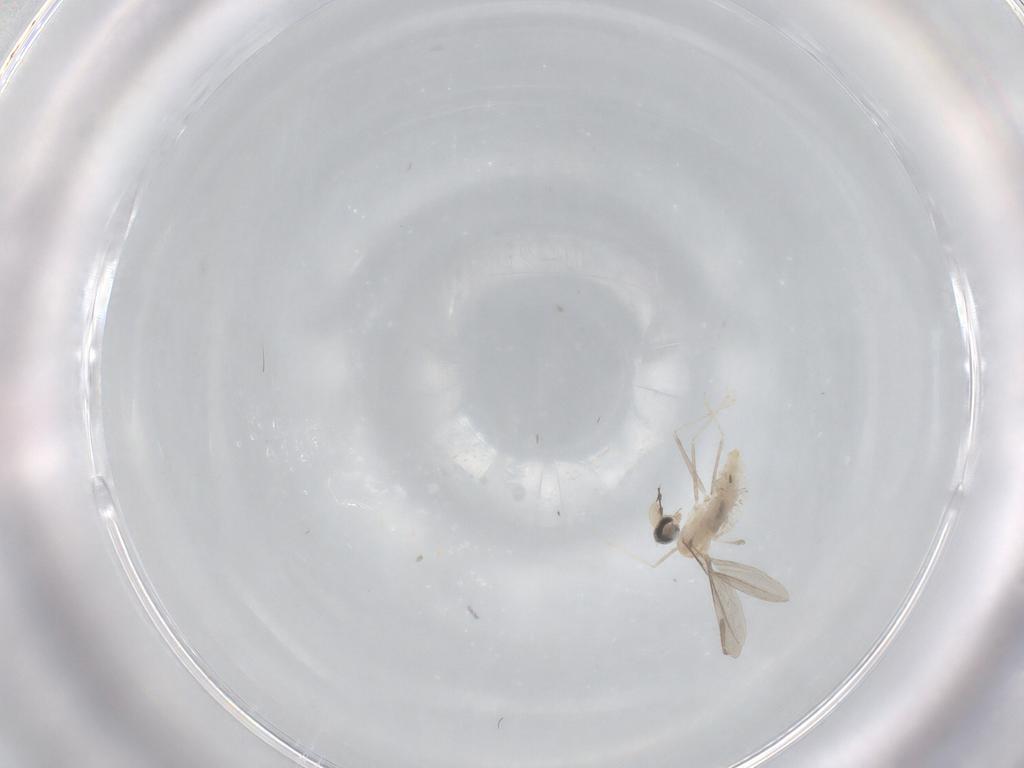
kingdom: Animalia
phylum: Arthropoda
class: Insecta
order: Diptera
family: Cecidomyiidae
